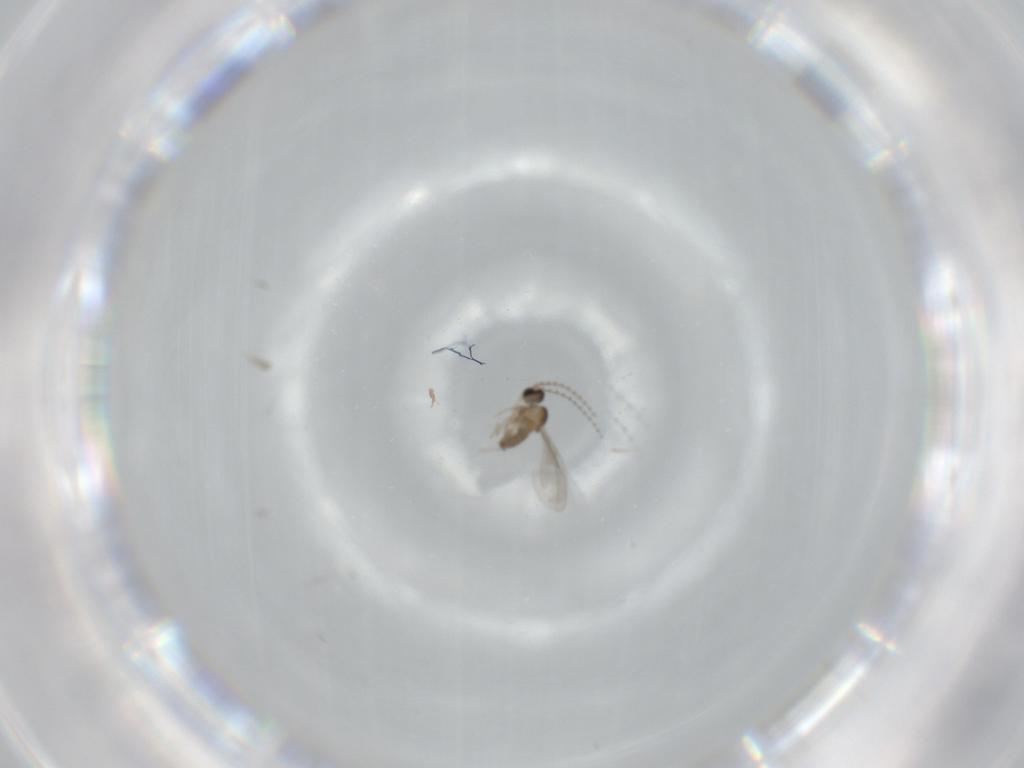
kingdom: Animalia
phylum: Arthropoda
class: Insecta
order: Diptera
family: Cecidomyiidae
